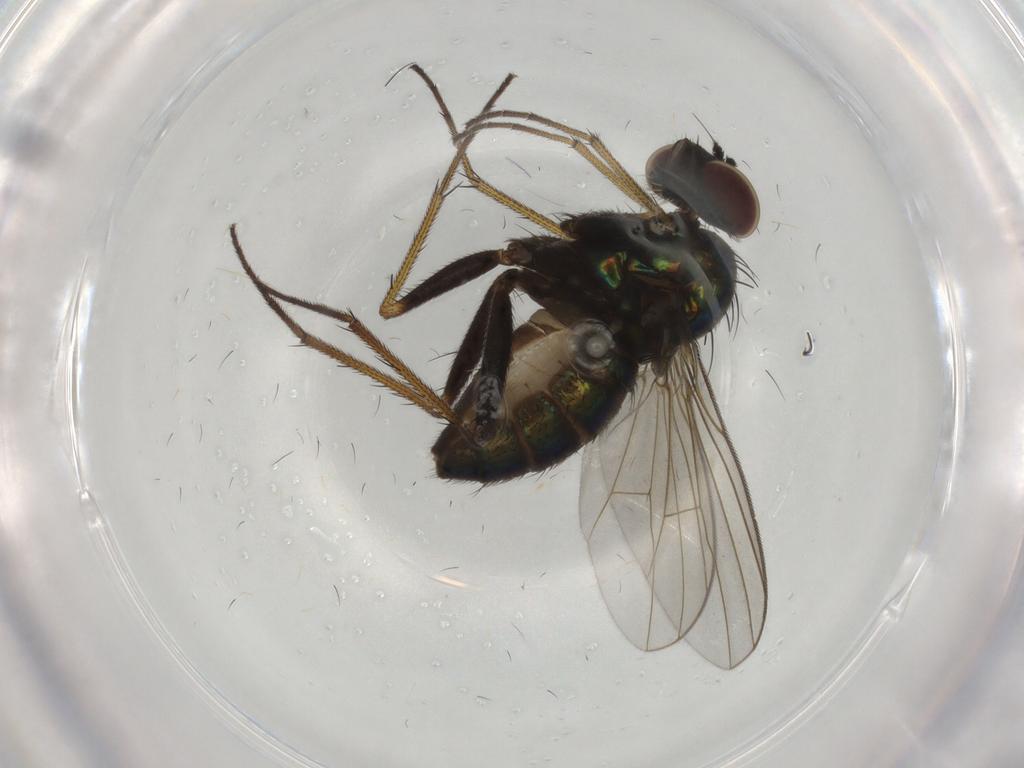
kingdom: Animalia
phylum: Arthropoda
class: Insecta
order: Diptera
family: Dolichopodidae
